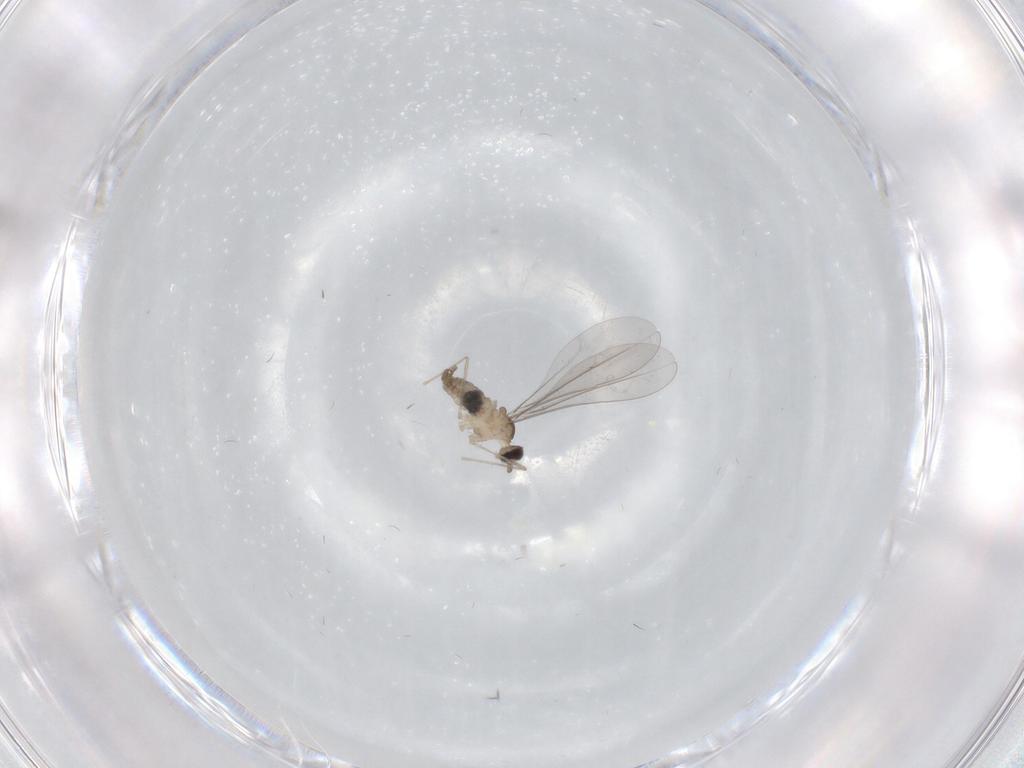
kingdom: Animalia
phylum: Arthropoda
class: Insecta
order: Diptera
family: Cecidomyiidae
